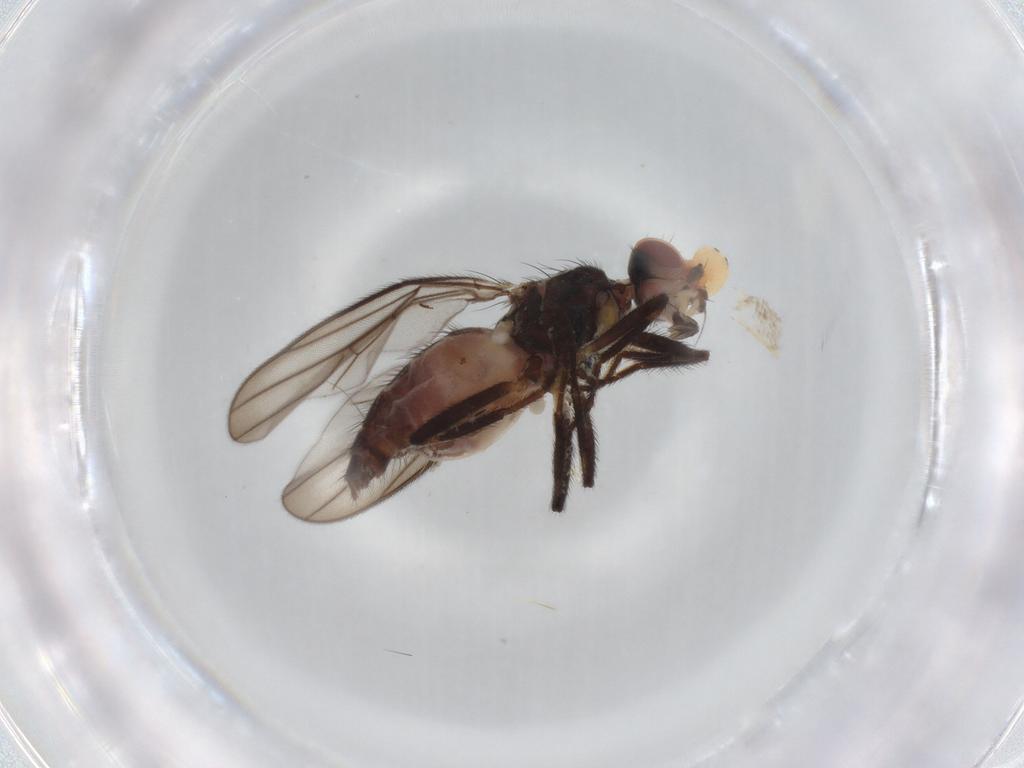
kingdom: Animalia
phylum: Arthropoda
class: Insecta
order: Diptera
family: Chloropidae
